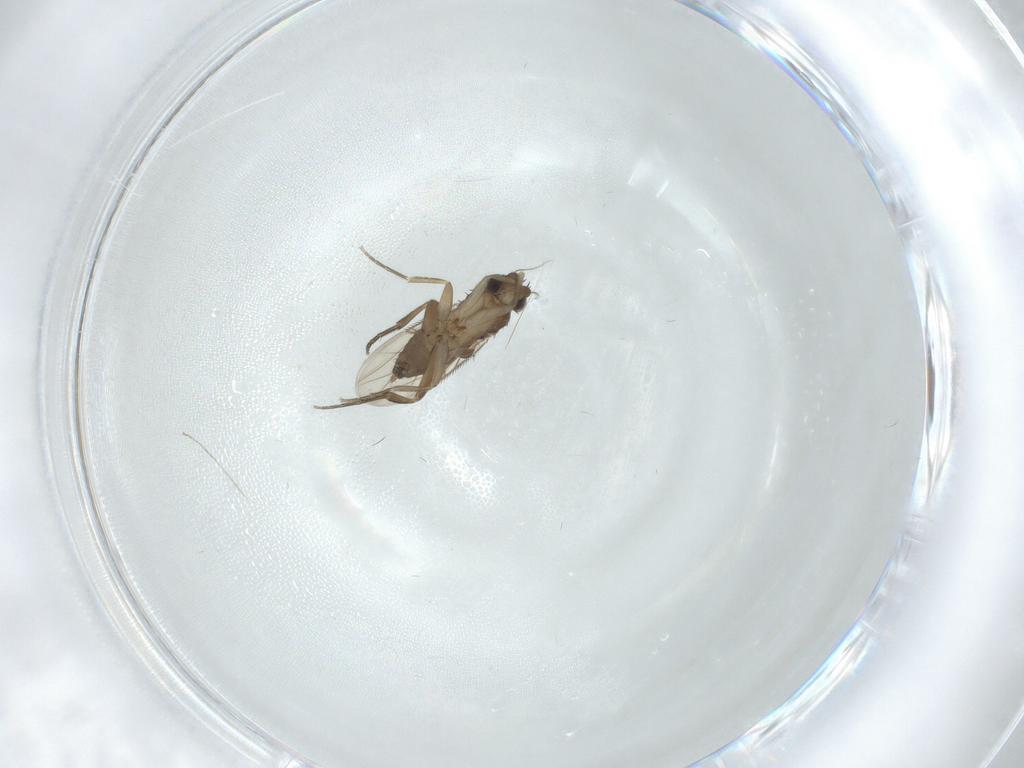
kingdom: Animalia
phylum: Arthropoda
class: Insecta
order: Diptera
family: Phoridae
